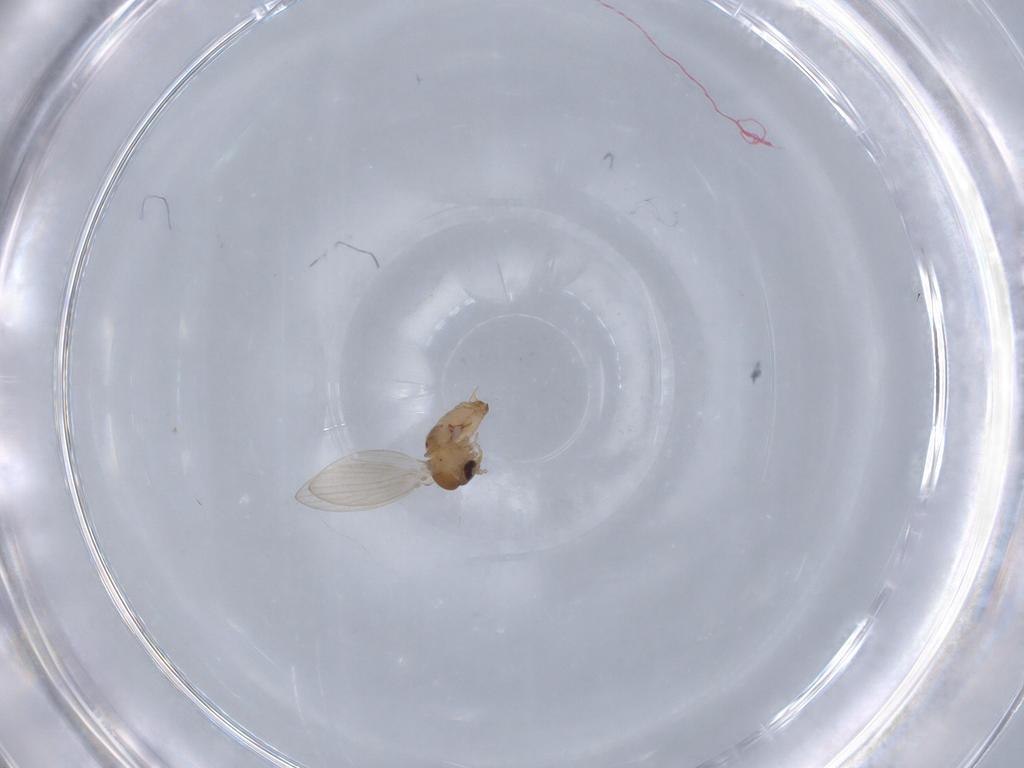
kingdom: Animalia
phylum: Arthropoda
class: Insecta
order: Diptera
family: Psychodidae
